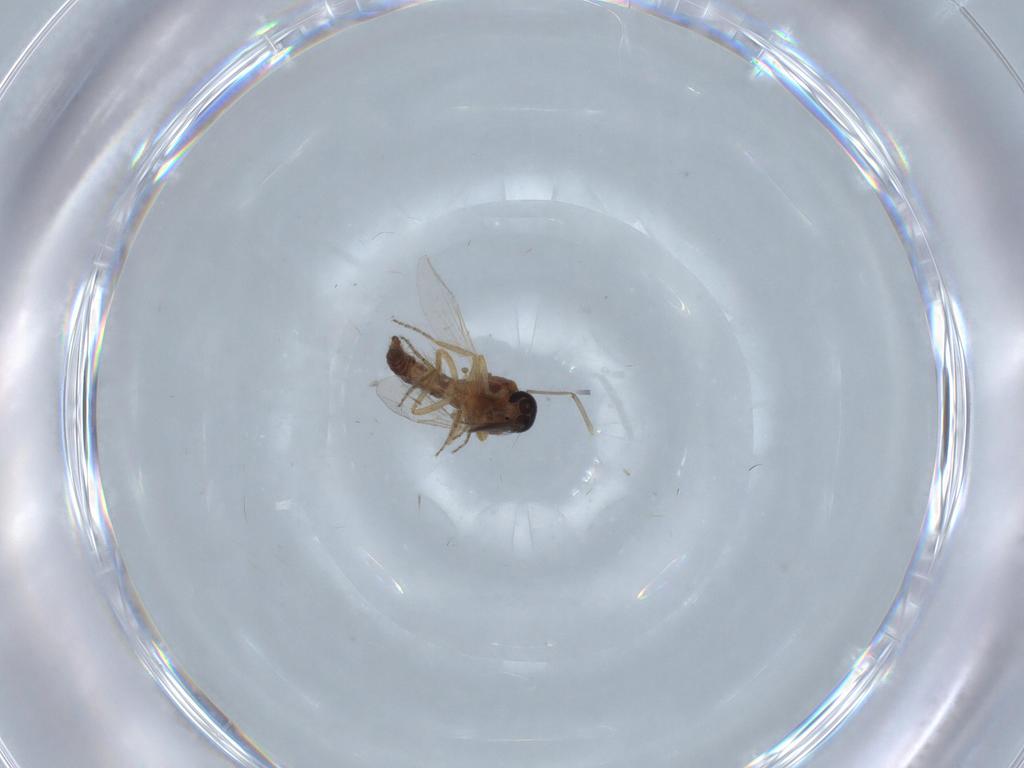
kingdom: Animalia
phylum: Arthropoda
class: Insecta
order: Diptera
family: Ceratopogonidae
